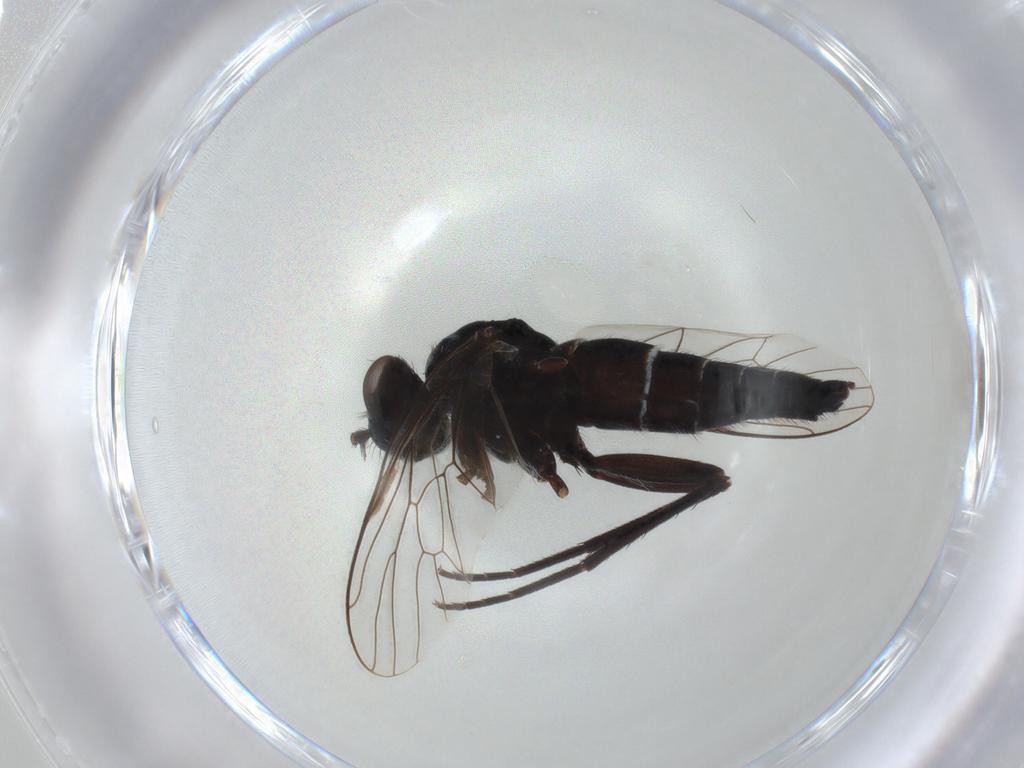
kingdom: Animalia
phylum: Arthropoda
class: Insecta
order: Diptera
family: Therevidae
